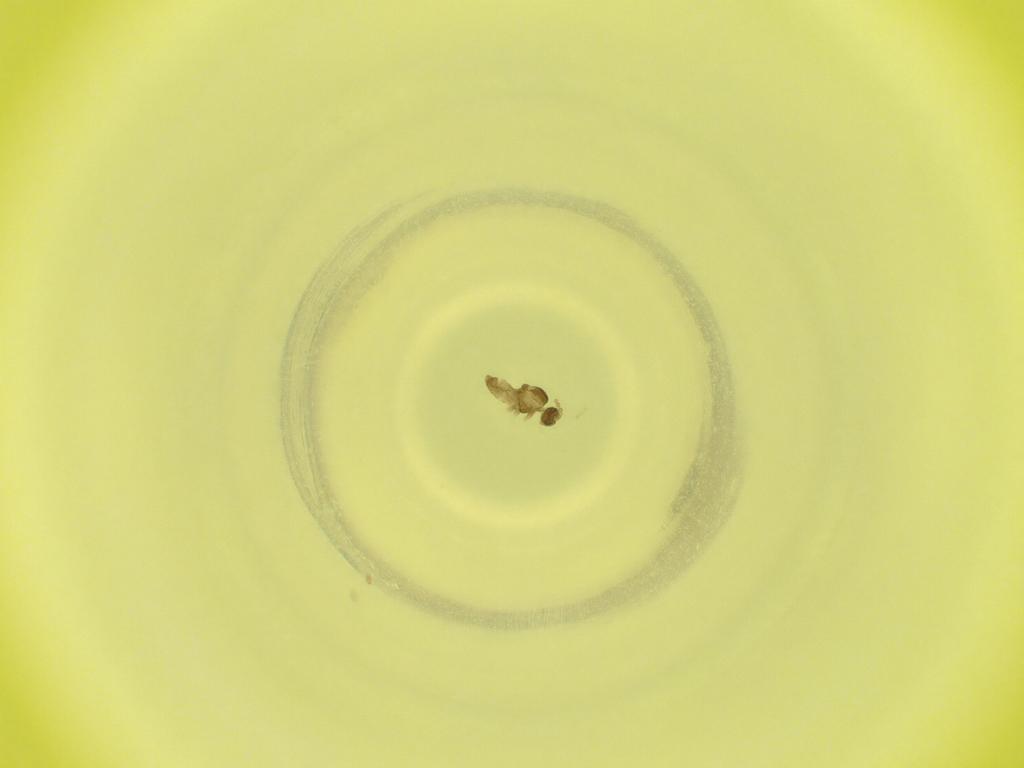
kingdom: Animalia
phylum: Arthropoda
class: Insecta
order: Diptera
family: Cecidomyiidae
